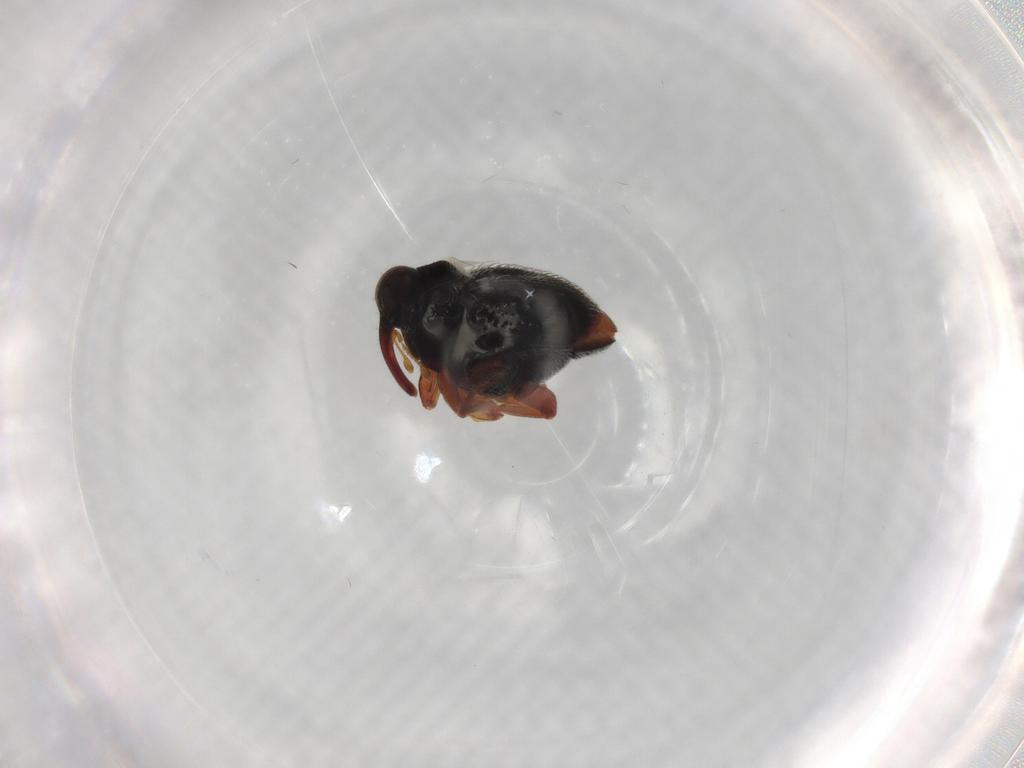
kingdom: Animalia
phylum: Arthropoda
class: Insecta
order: Coleoptera
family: Curculionidae
